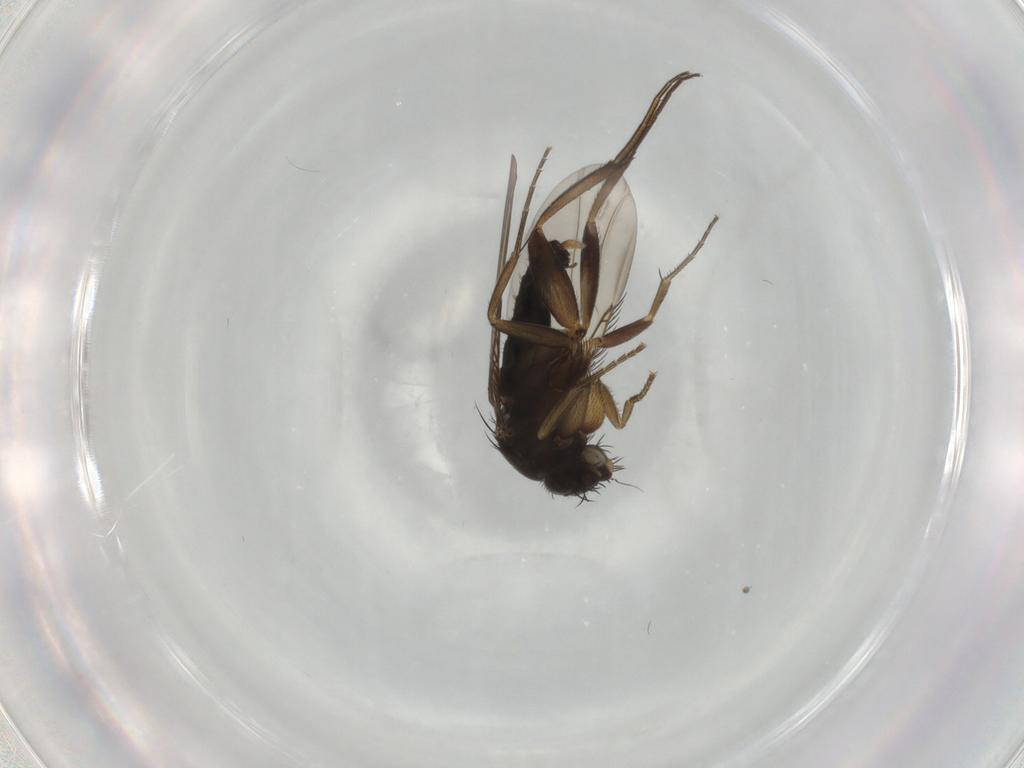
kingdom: Animalia
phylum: Arthropoda
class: Insecta
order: Diptera
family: Phoridae
